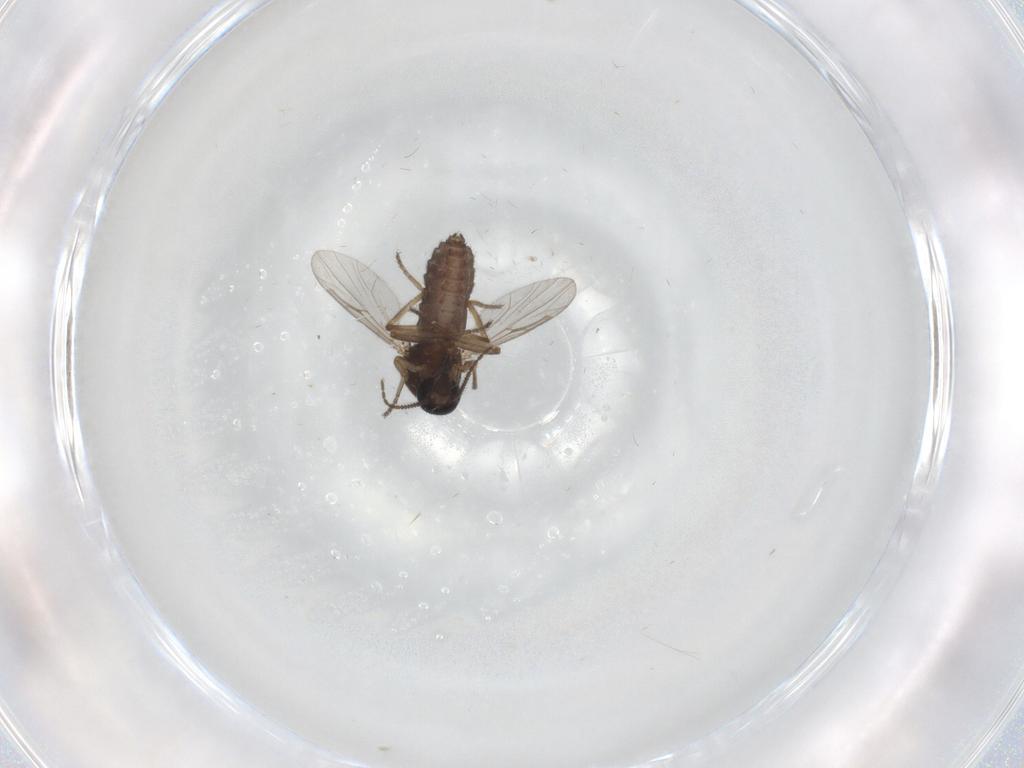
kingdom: Animalia
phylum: Arthropoda
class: Insecta
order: Diptera
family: Ceratopogonidae
